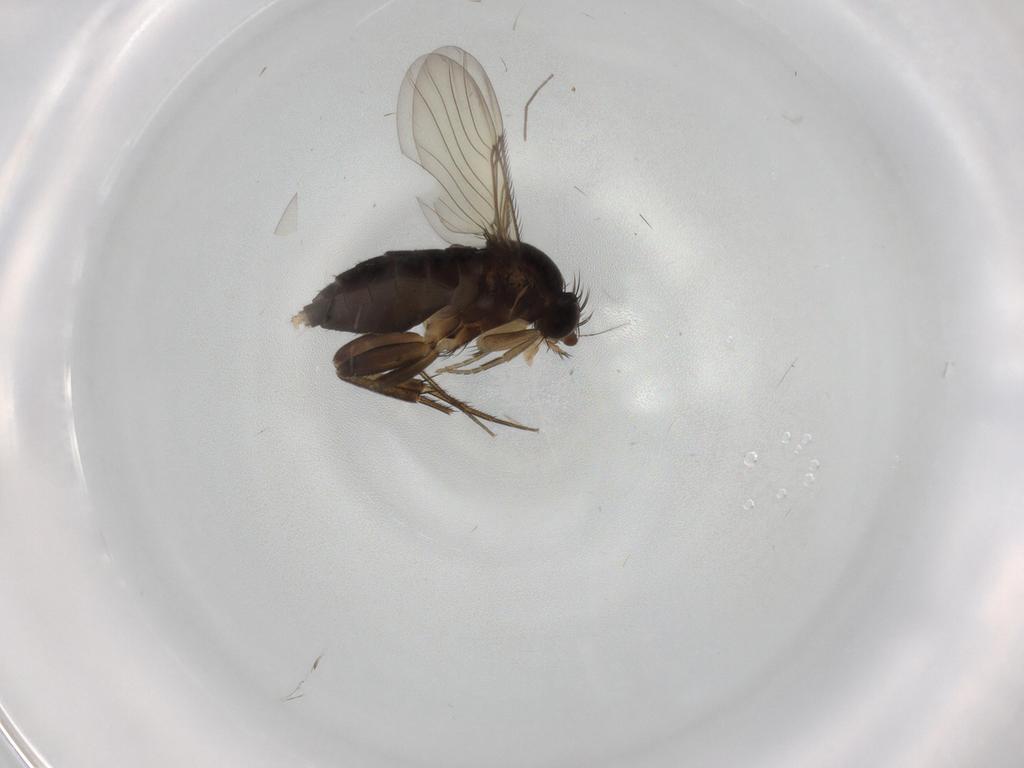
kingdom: Animalia
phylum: Arthropoda
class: Insecta
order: Diptera
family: Phoridae
